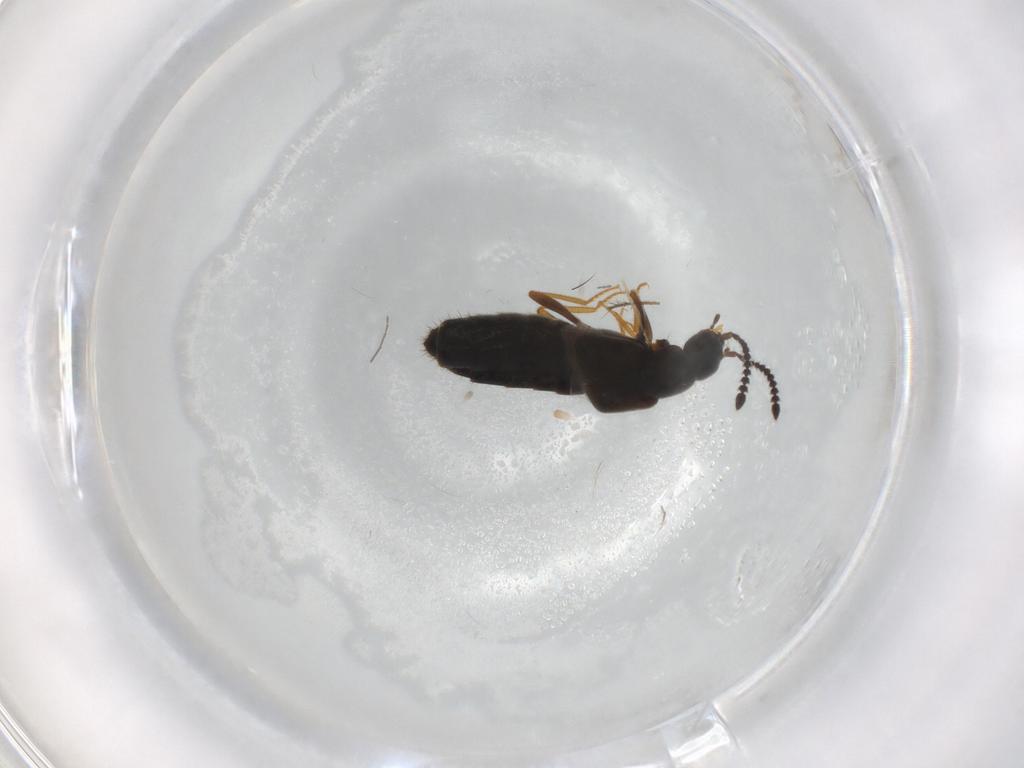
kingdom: Animalia
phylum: Arthropoda
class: Insecta
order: Coleoptera
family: Staphylinidae
